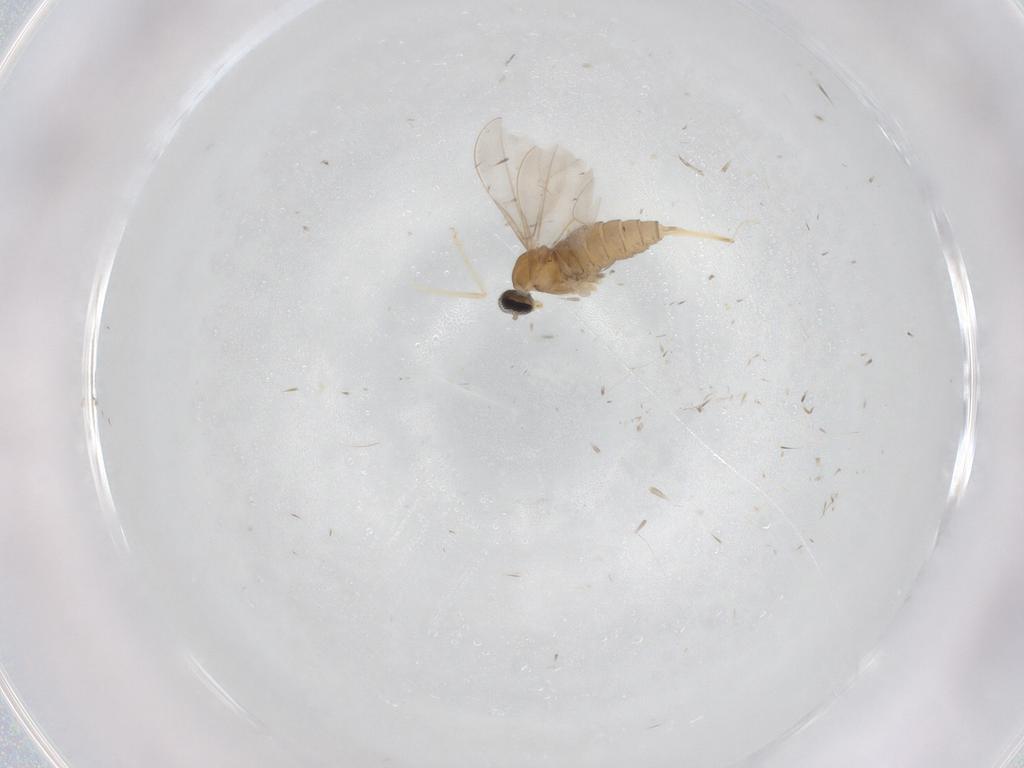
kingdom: Animalia
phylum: Arthropoda
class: Insecta
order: Diptera
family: Cecidomyiidae
